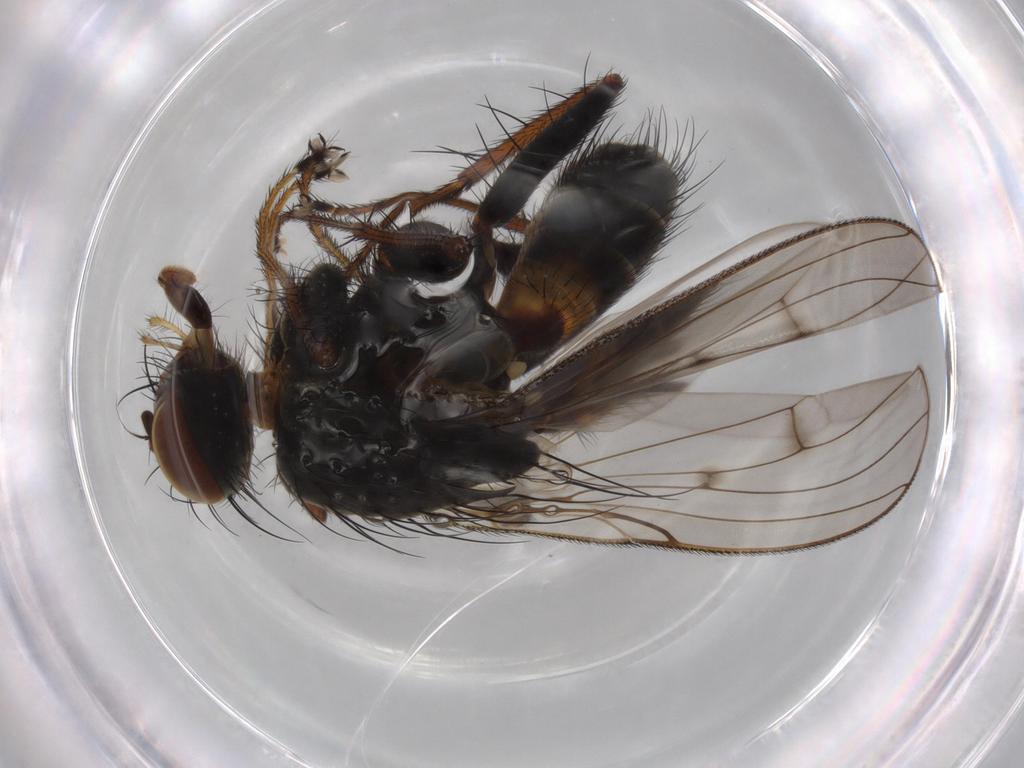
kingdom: Animalia
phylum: Arthropoda
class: Insecta
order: Diptera
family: Muscidae
